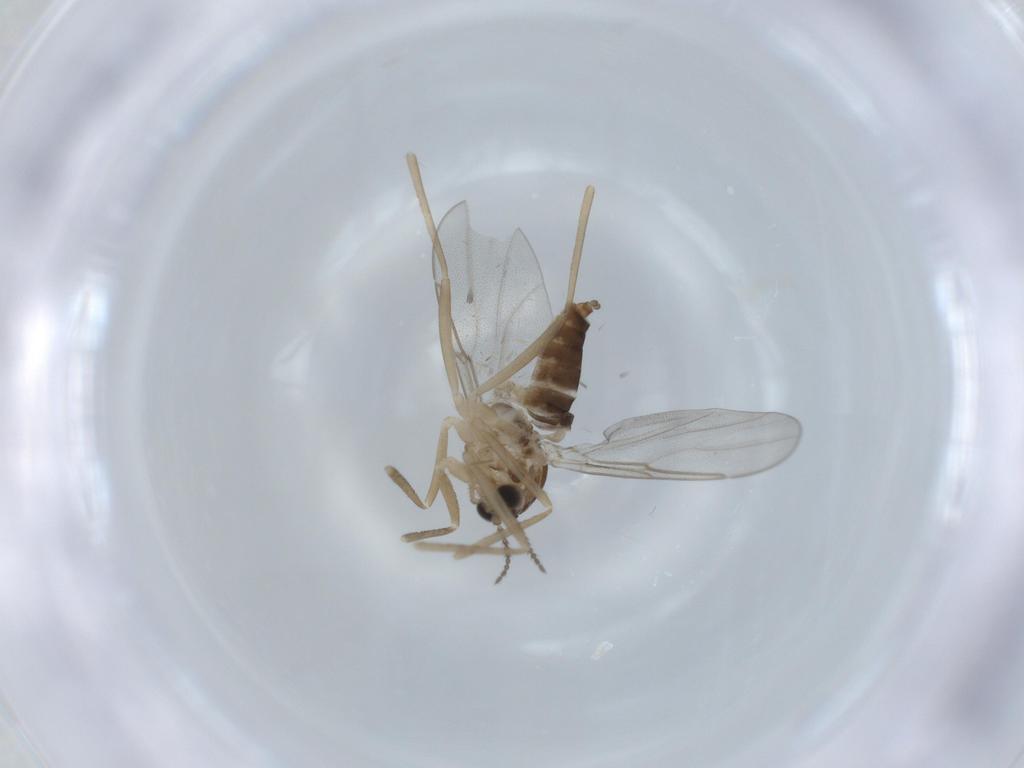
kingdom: Animalia
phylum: Arthropoda
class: Insecta
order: Diptera
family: Cecidomyiidae
